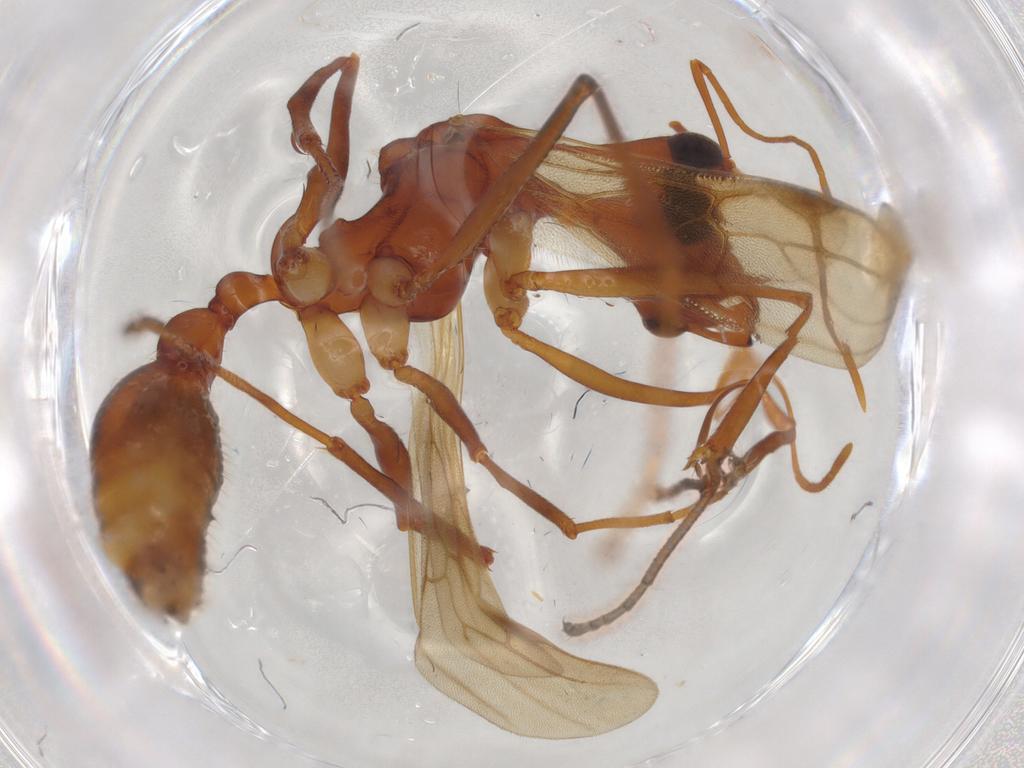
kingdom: Animalia
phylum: Arthropoda
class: Insecta
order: Hymenoptera
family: Formicidae
